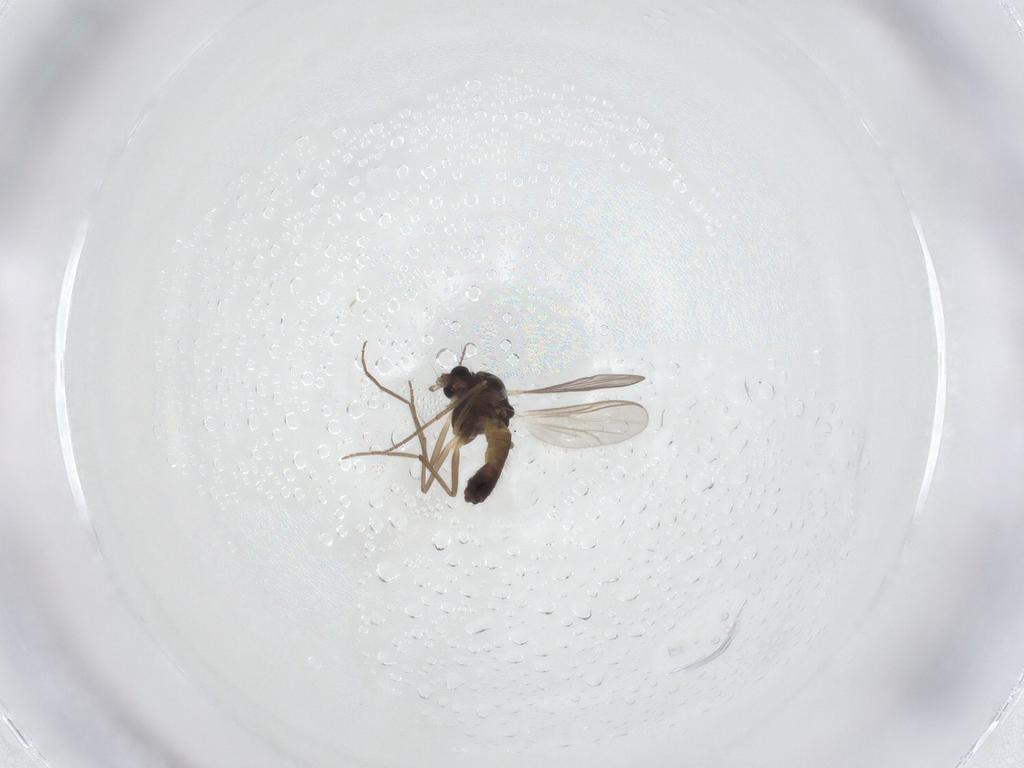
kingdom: Animalia
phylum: Arthropoda
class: Insecta
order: Diptera
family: Chironomidae
